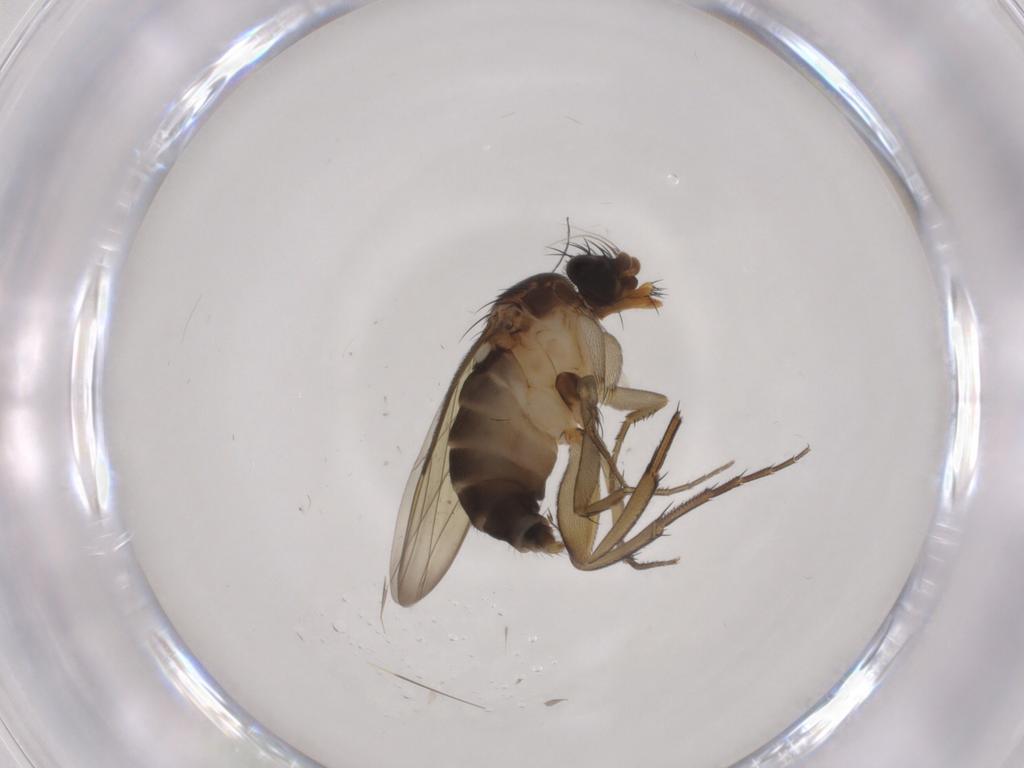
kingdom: Animalia
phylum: Arthropoda
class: Insecta
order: Diptera
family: Phoridae
